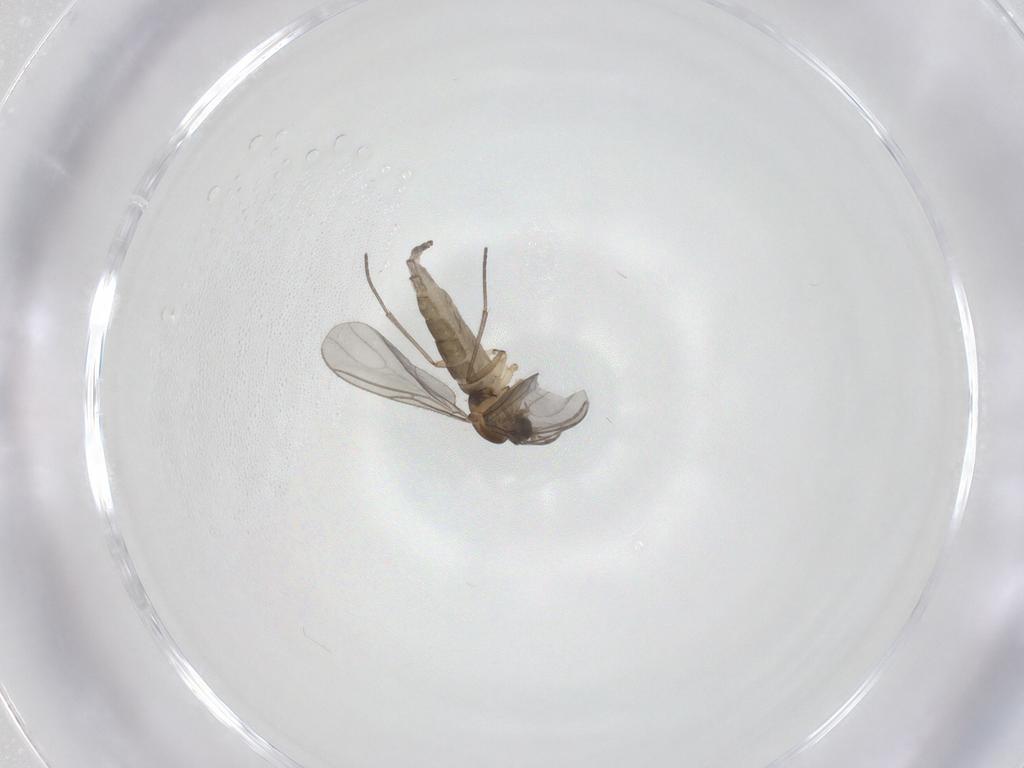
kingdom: Animalia
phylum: Arthropoda
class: Insecta
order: Diptera
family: Sciaridae
